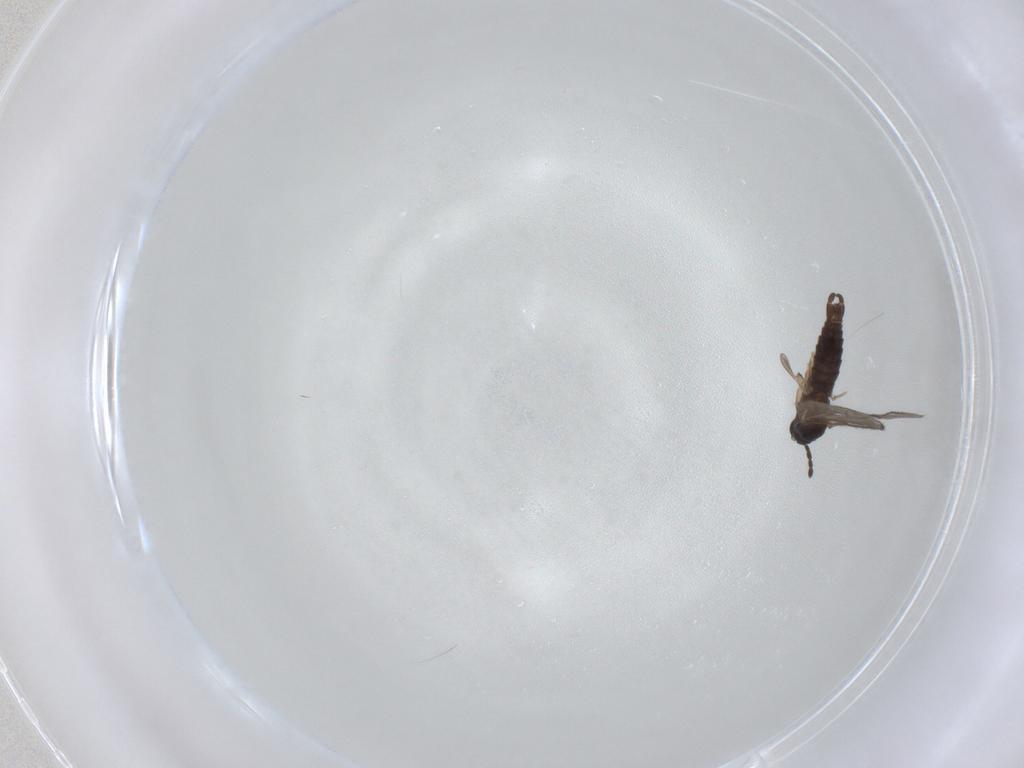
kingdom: Animalia
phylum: Arthropoda
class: Insecta
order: Diptera
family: Sciaridae
